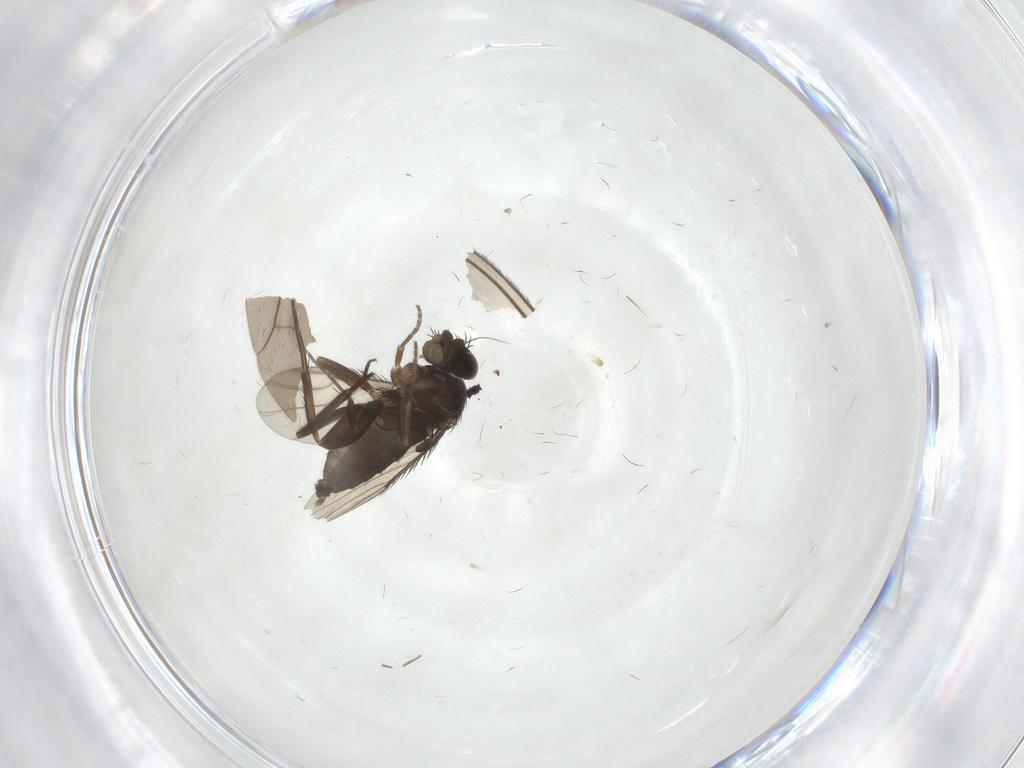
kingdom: Animalia
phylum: Arthropoda
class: Insecta
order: Diptera
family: Phoridae
